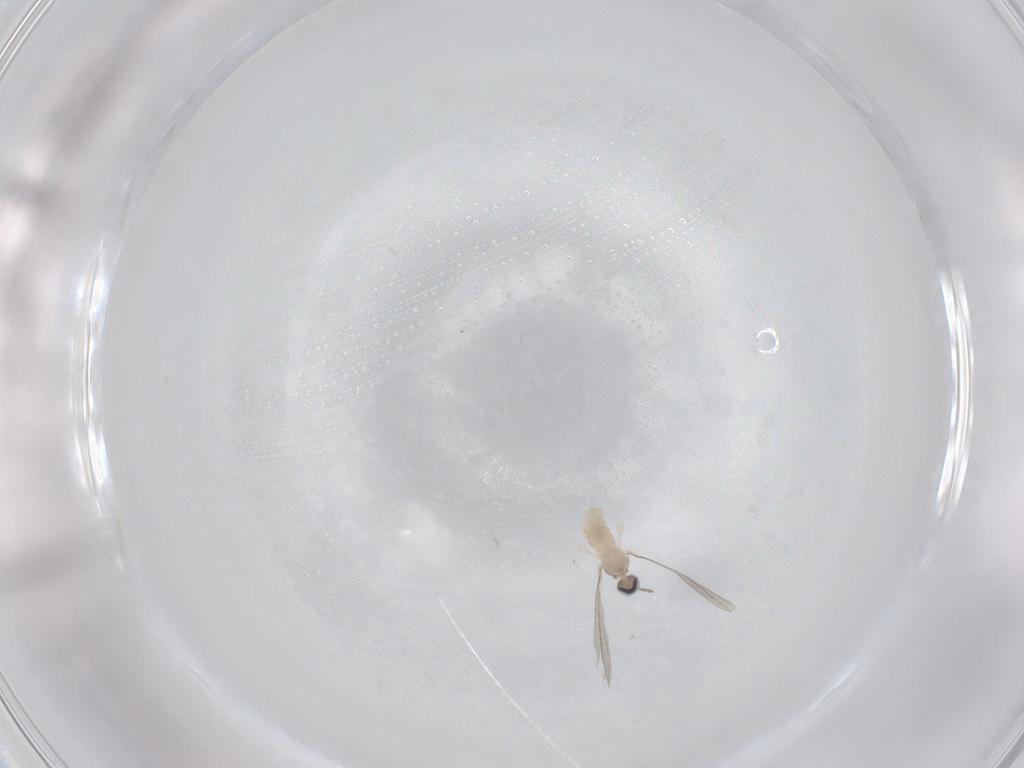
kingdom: Animalia
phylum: Arthropoda
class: Insecta
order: Diptera
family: Cecidomyiidae
